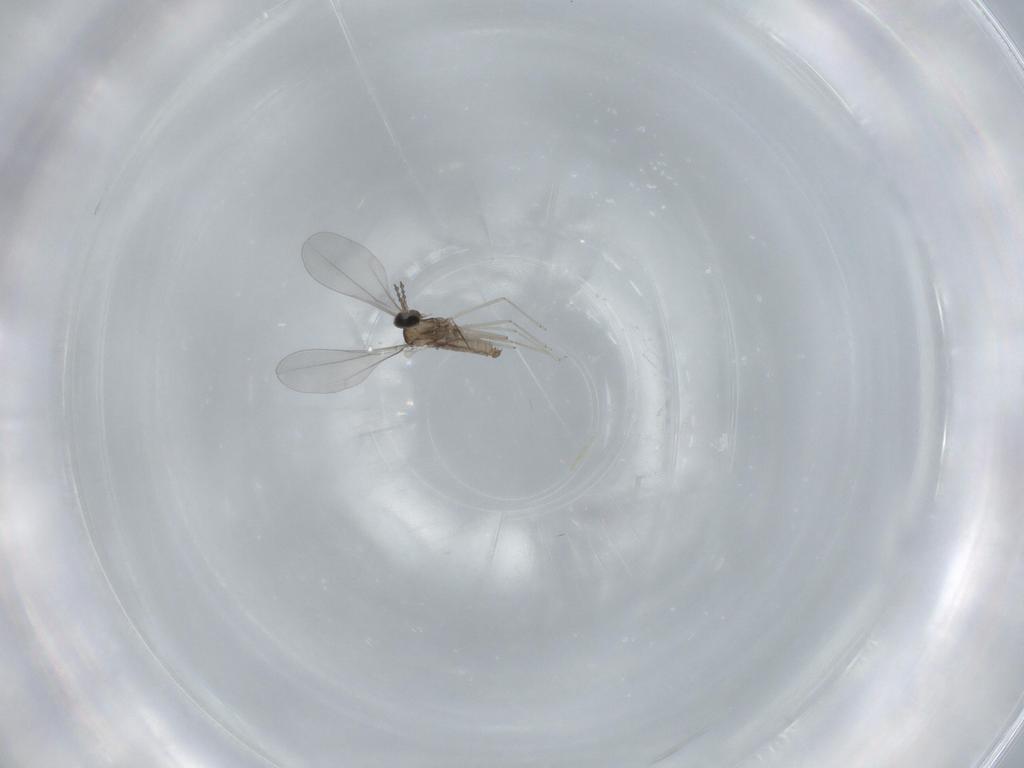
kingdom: Animalia
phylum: Arthropoda
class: Insecta
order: Diptera
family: Cecidomyiidae
